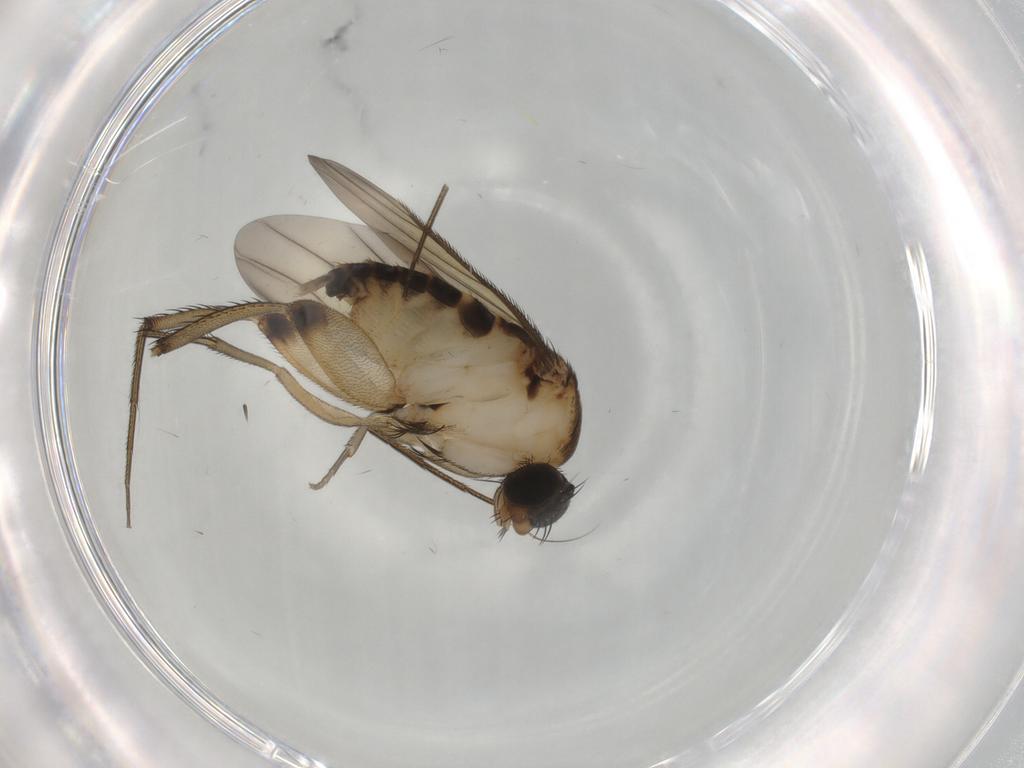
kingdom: Animalia
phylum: Arthropoda
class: Insecta
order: Diptera
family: Phoridae
